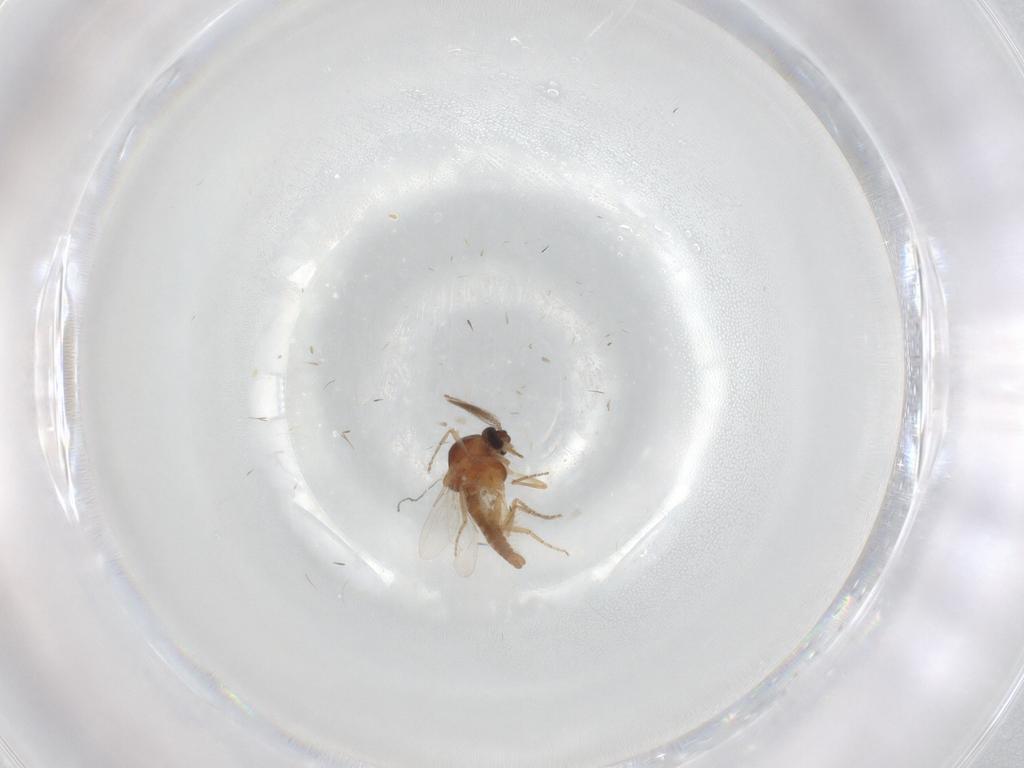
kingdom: Animalia
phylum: Arthropoda
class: Insecta
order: Diptera
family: Ceratopogonidae
